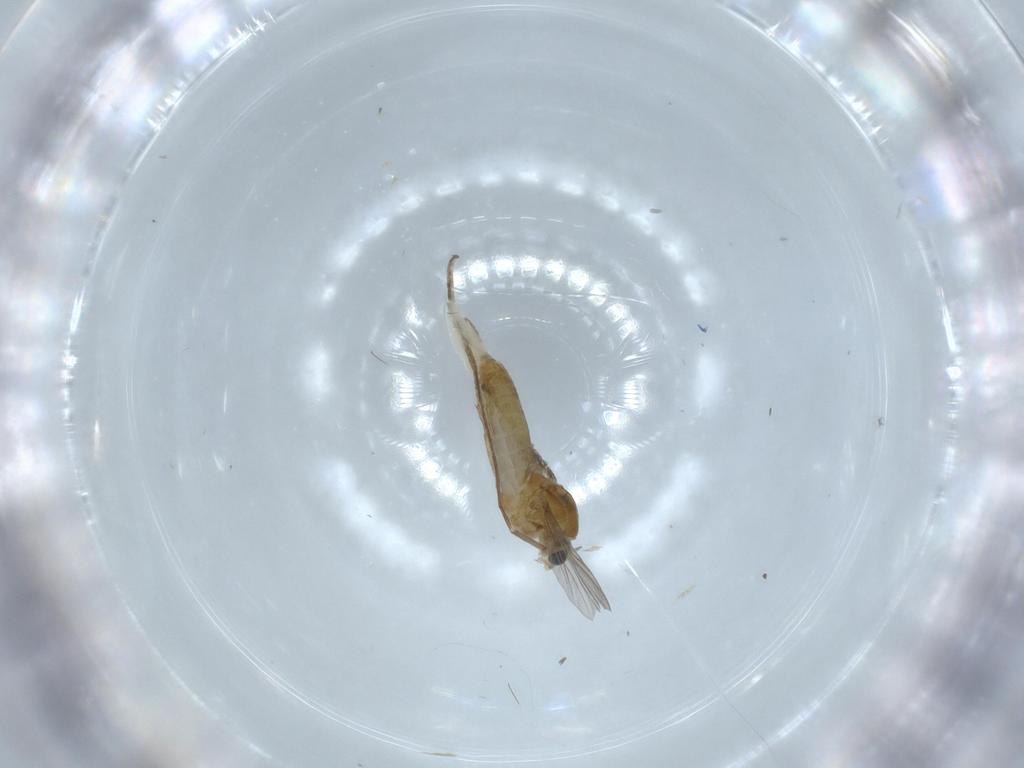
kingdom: Animalia
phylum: Arthropoda
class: Insecta
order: Diptera
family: Chironomidae
